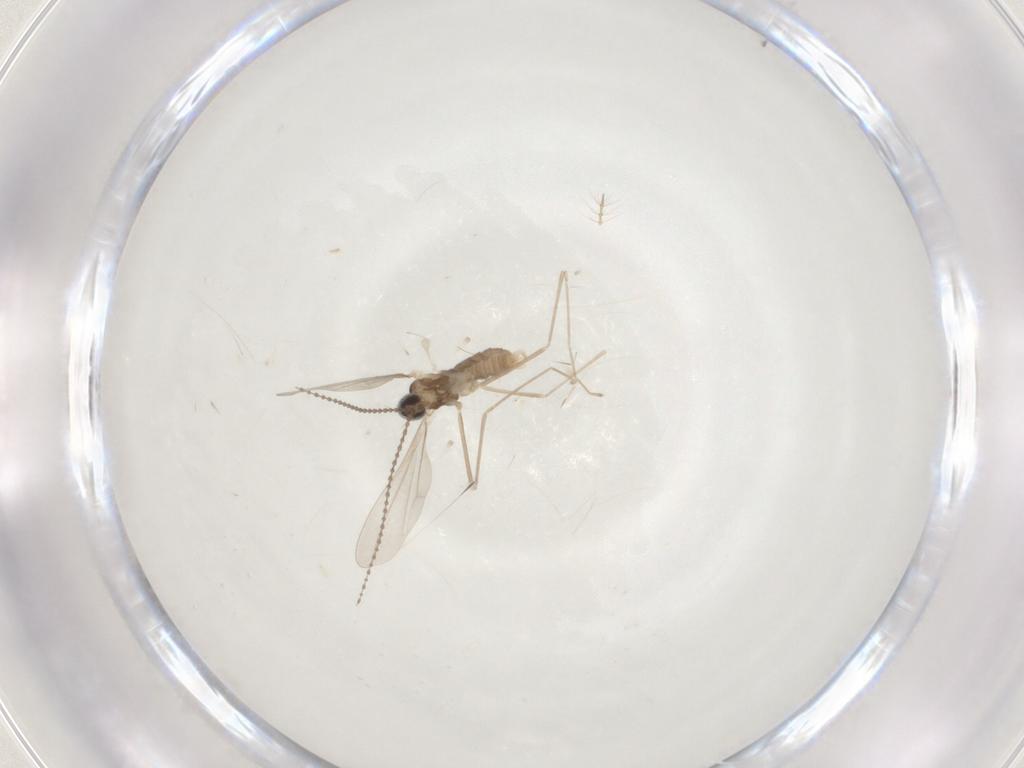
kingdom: Animalia
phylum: Arthropoda
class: Insecta
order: Diptera
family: Cecidomyiidae
